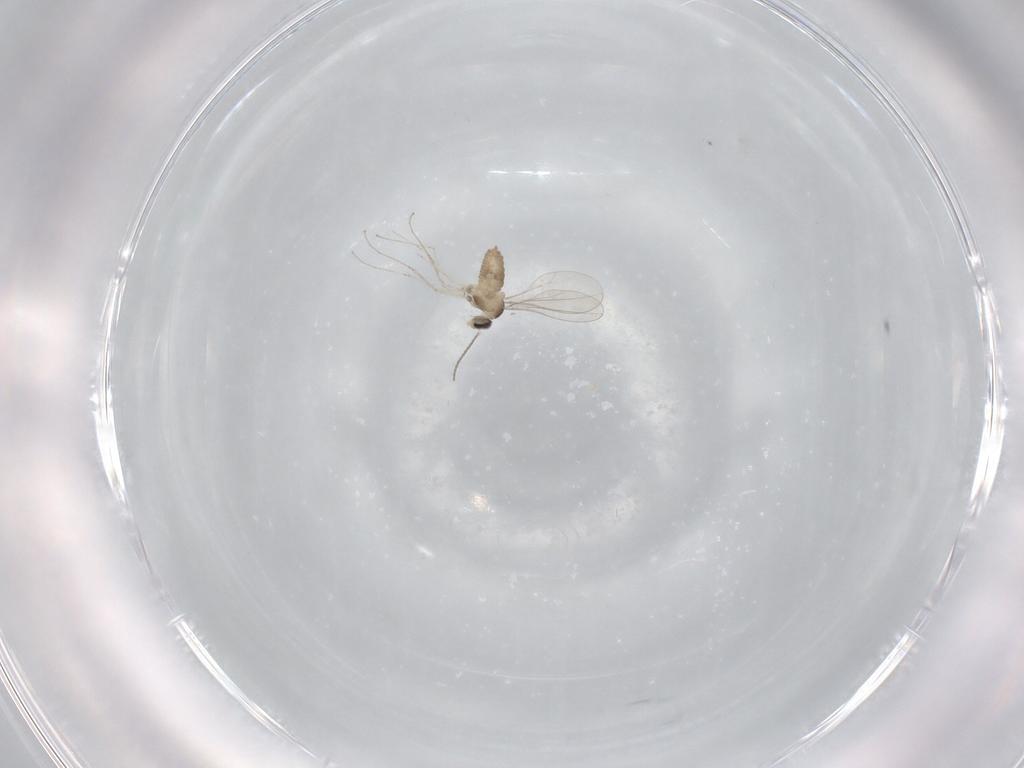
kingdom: Animalia
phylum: Arthropoda
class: Insecta
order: Diptera
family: Cecidomyiidae
